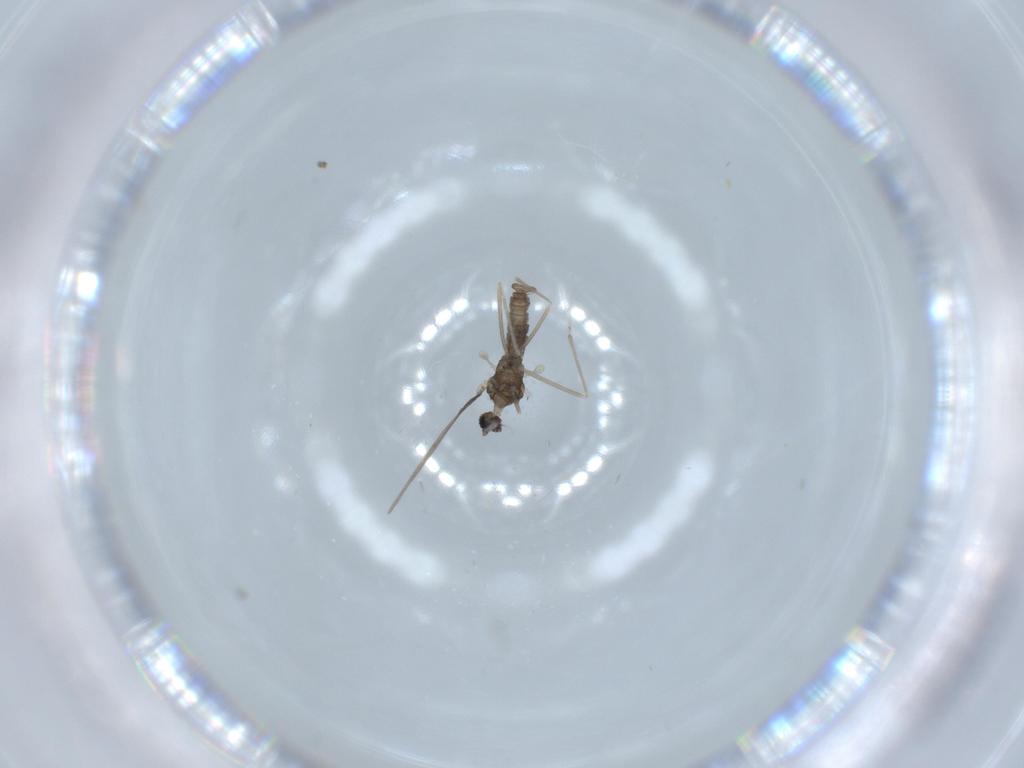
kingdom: Animalia
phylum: Arthropoda
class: Insecta
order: Diptera
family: Cecidomyiidae
